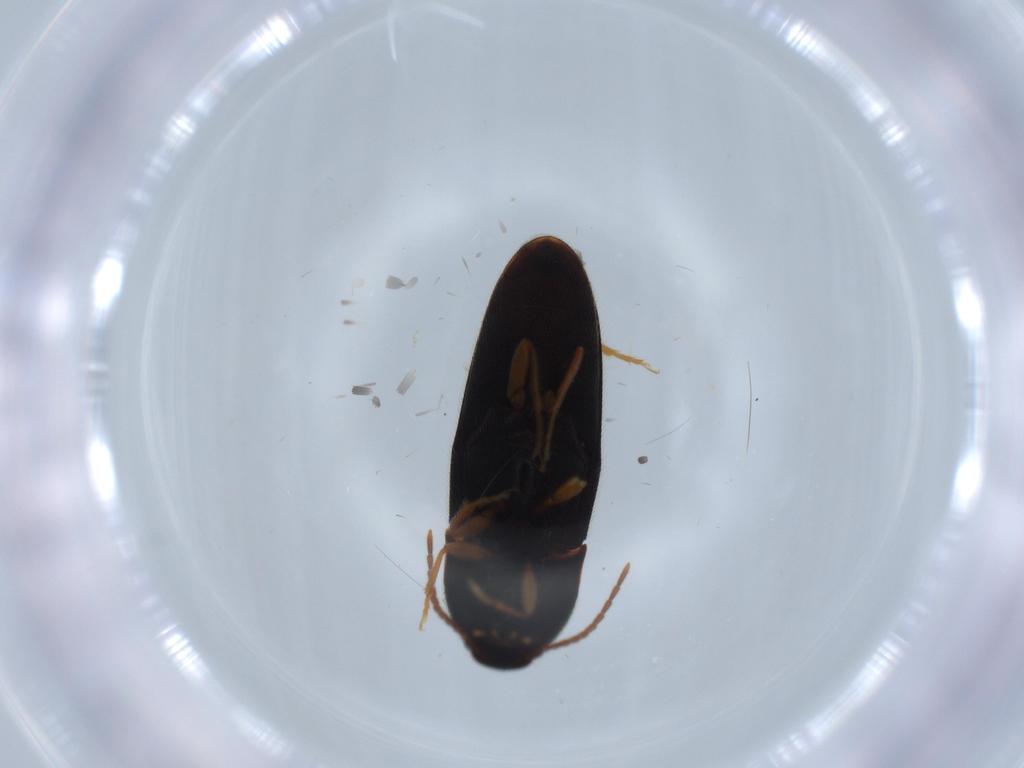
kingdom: Animalia
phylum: Arthropoda
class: Insecta
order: Coleoptera
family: Elateridae
